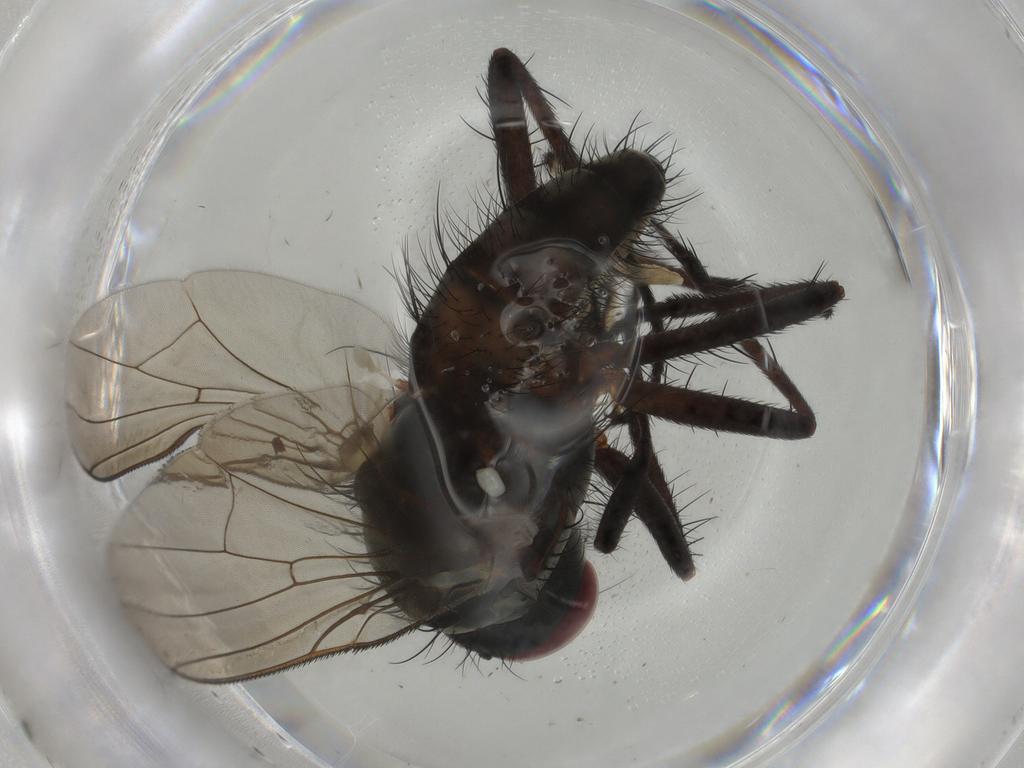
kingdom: Animalia
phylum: Arthropoda
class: Insecta
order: Diptera
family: Anthomyiidae
